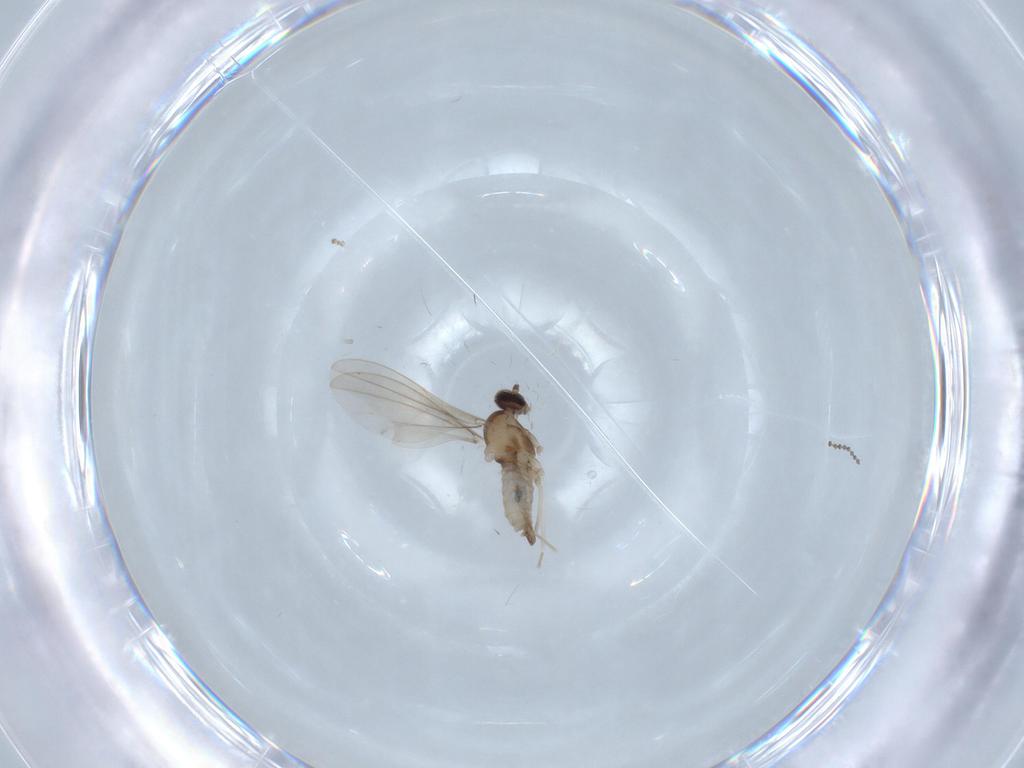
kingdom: Animalia
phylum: Arthropoda
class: Insecta
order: Diptera
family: Cecidomyiidae
